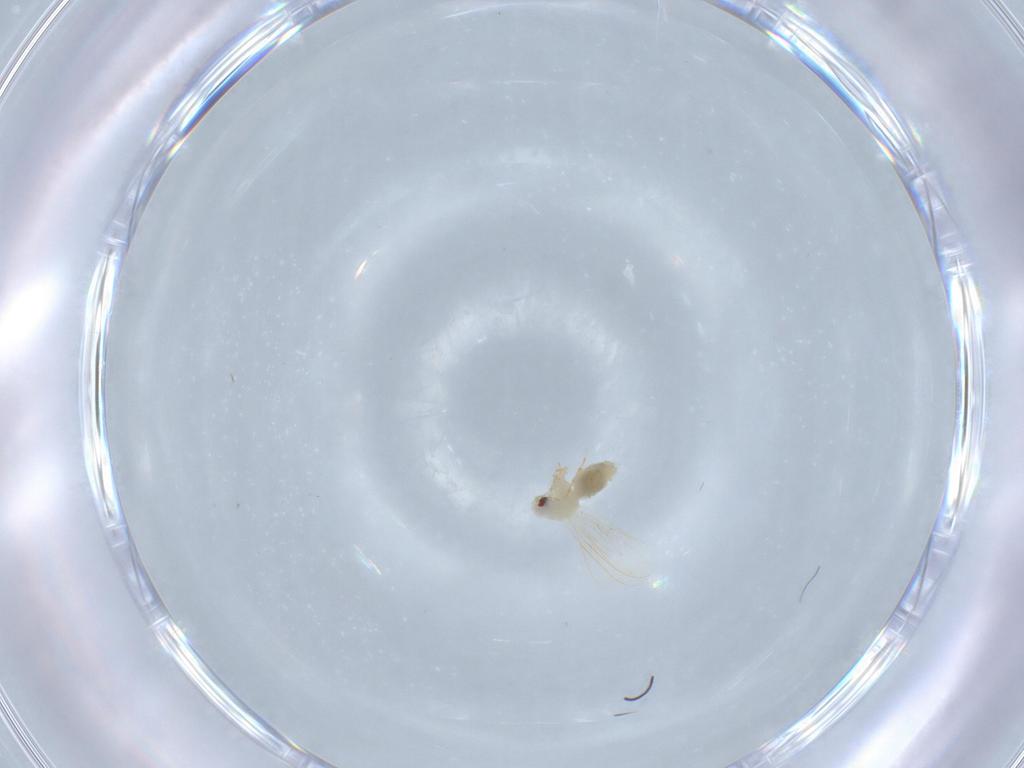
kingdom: Animalia
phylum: Arthropoda
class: Insecta
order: Hemiptera
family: Aleyrodidae
